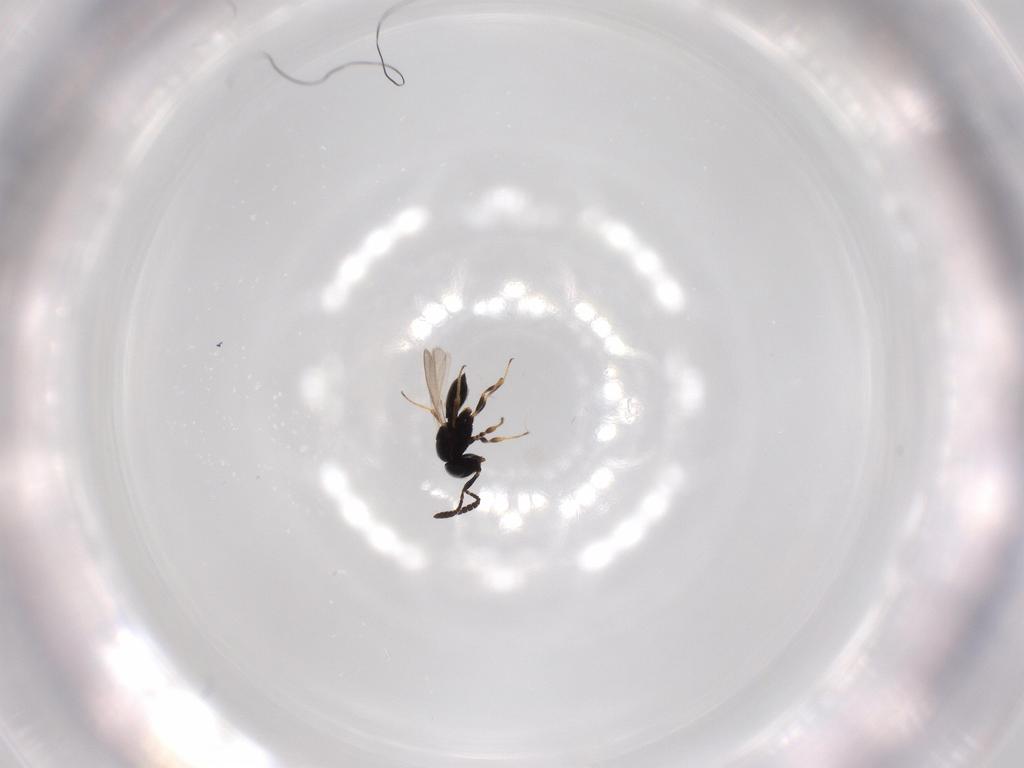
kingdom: Animalia
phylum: Arthropoda
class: Insecta
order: Hymenoptera
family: Scelionidae
